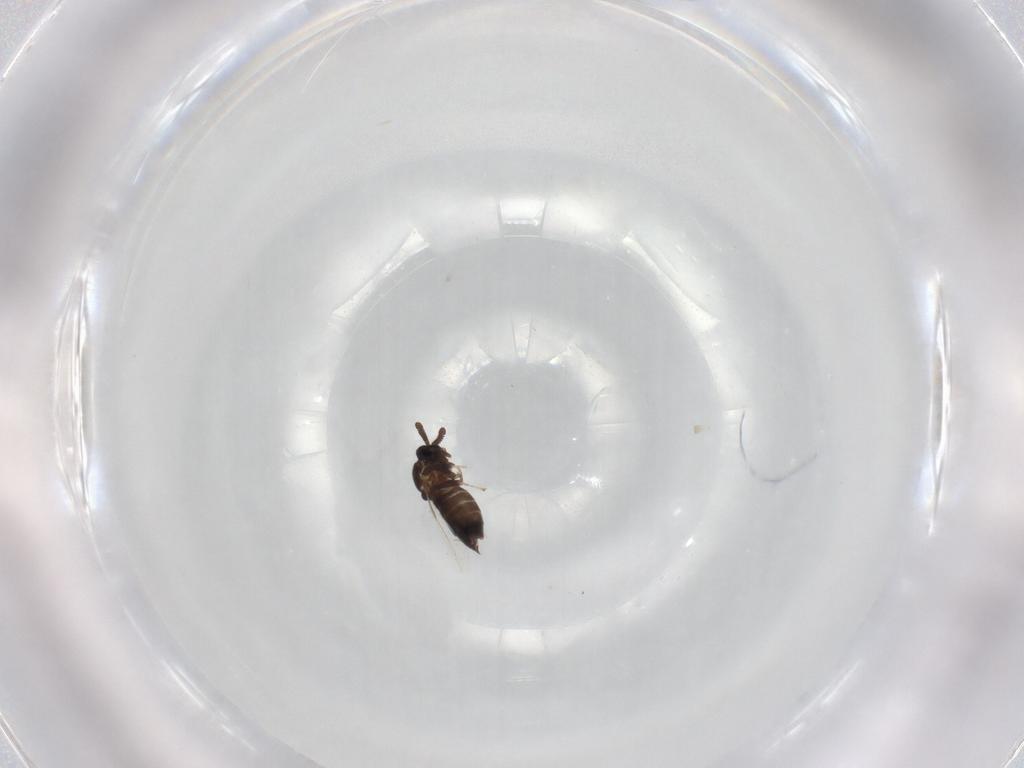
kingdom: Animalia
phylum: Arthropoda
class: Insecta
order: Diptera
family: Scatopsidae
